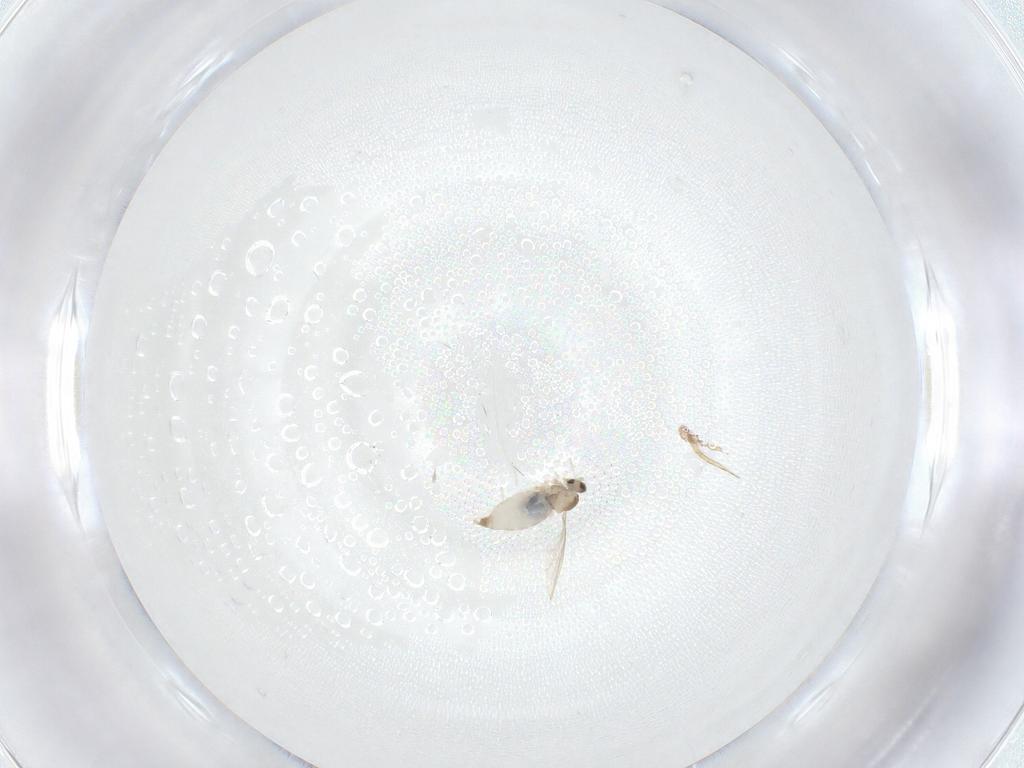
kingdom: Animalia
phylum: Arthropoda
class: Insecta
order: Diptera
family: Cecidomyiidae
